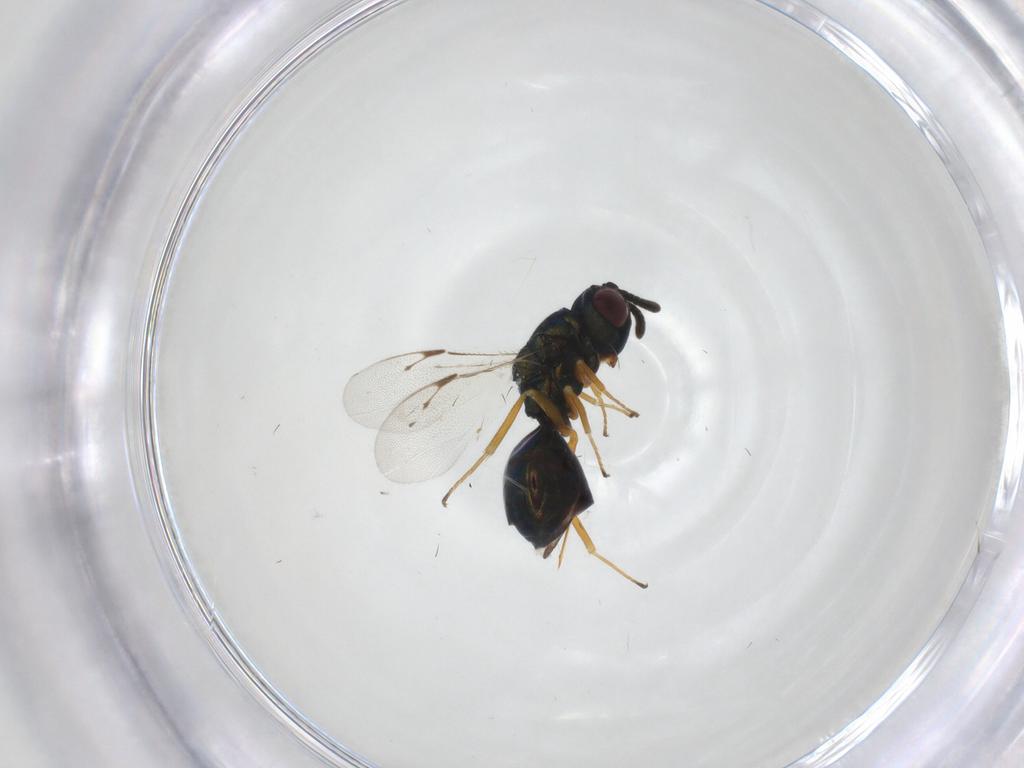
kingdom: Animalia
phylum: Arthropoda
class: Insecta
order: Hymenoptera
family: Pteromalidae
